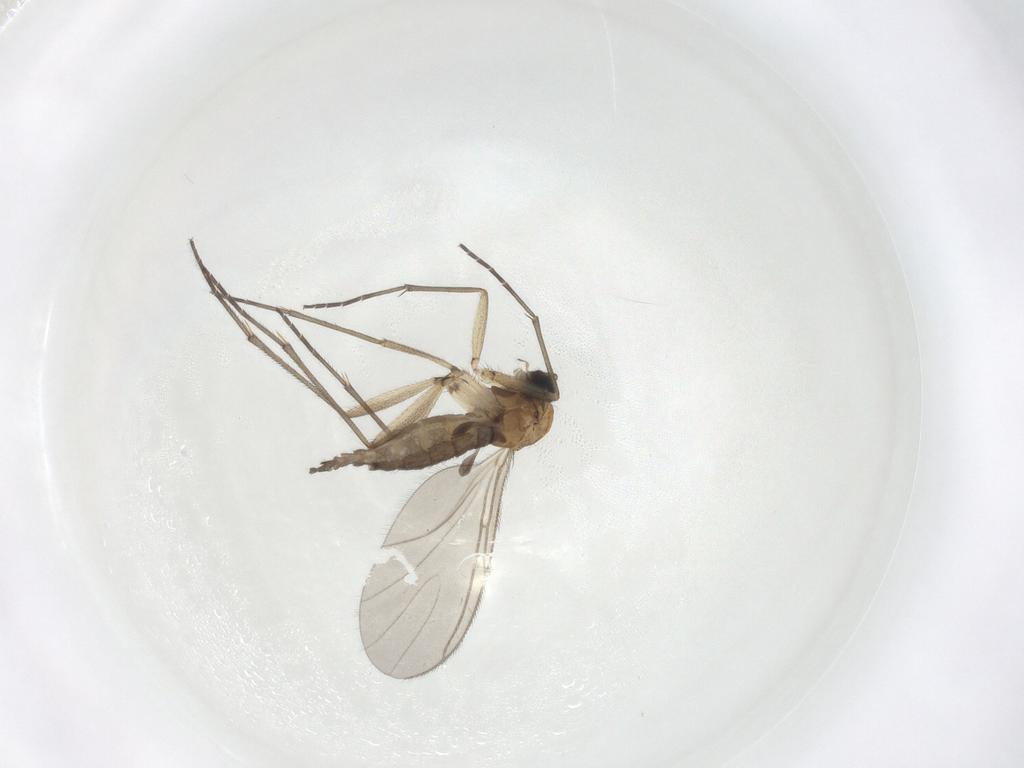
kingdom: Animalia
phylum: Arthropoda
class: Insecta
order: Diptera
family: Sciaridae
